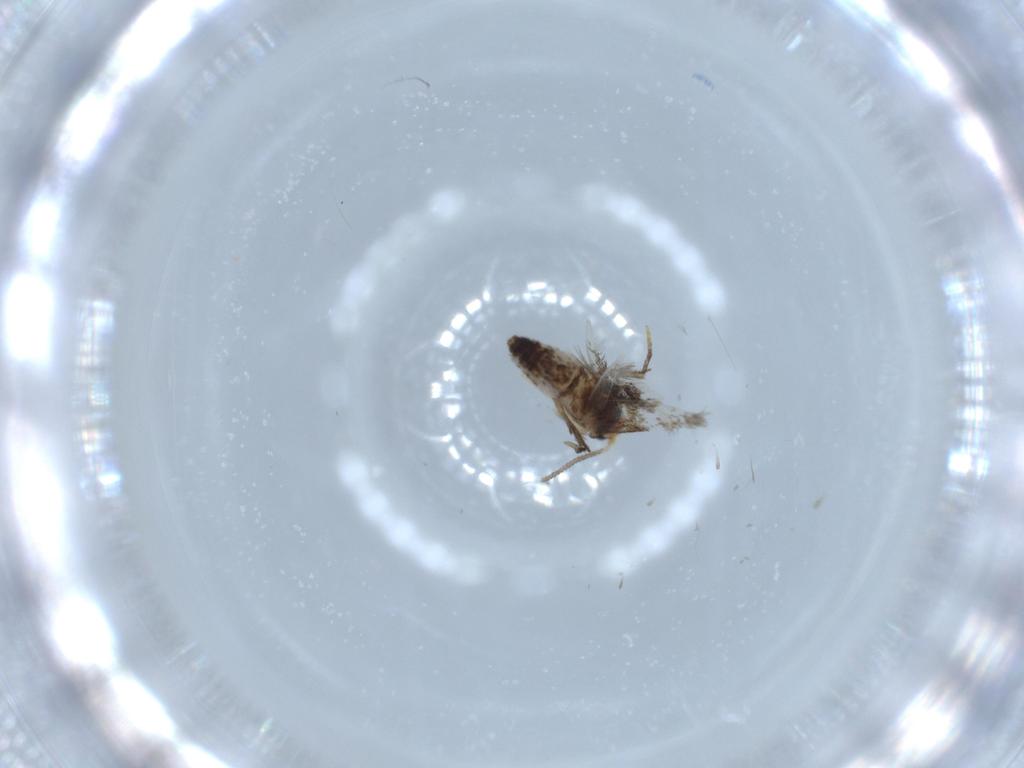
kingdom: Animalia
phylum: Arthropoda
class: Insecta
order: Lepidoptera
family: Nepticulidae
